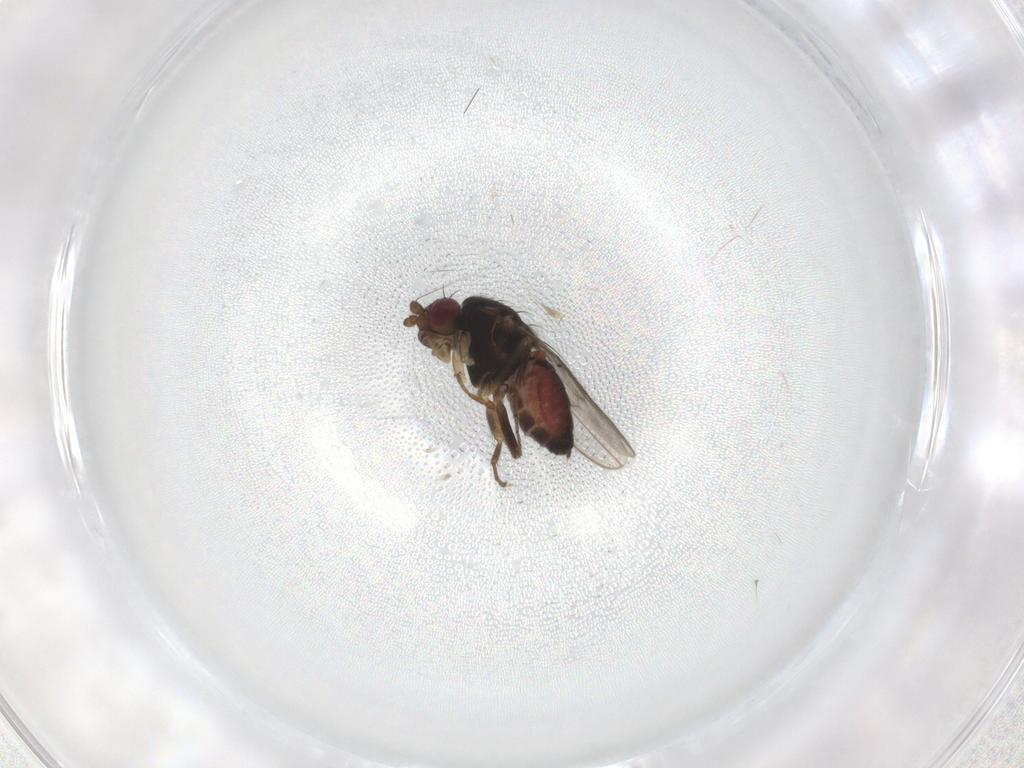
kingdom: Animalia
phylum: Arthropoda
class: Insecta
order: Diptera
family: Sphaeroceridae
